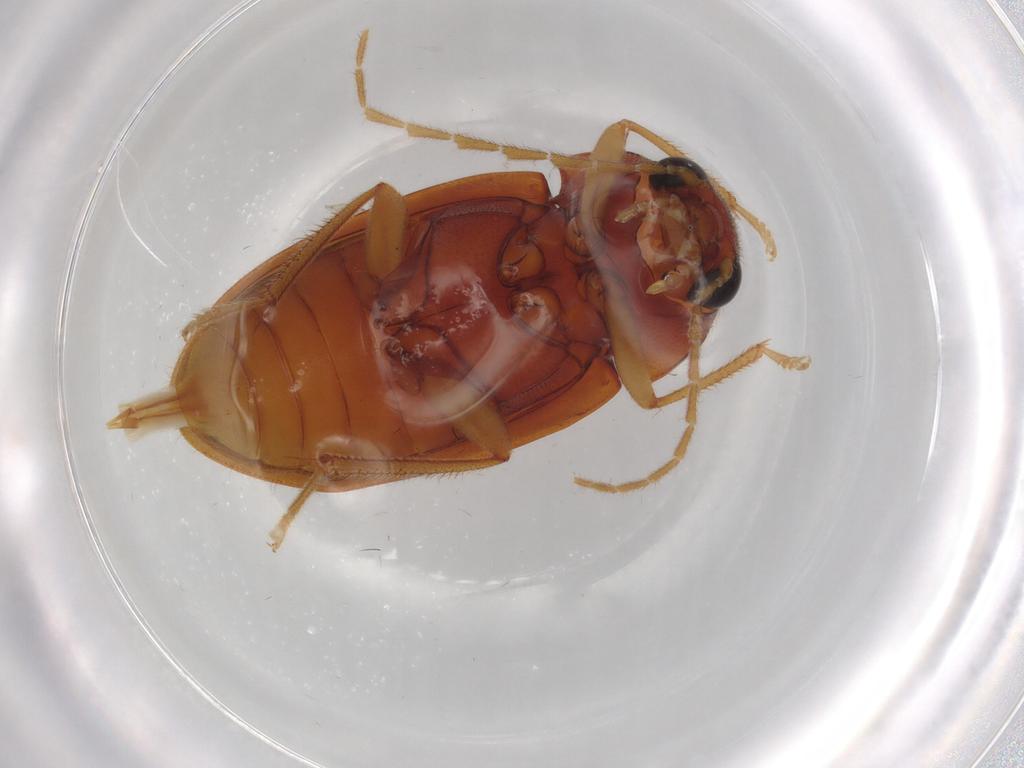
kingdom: Animalia
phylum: Arthropoda
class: Insecta
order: Coleoptera
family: Ptilodactylidae
